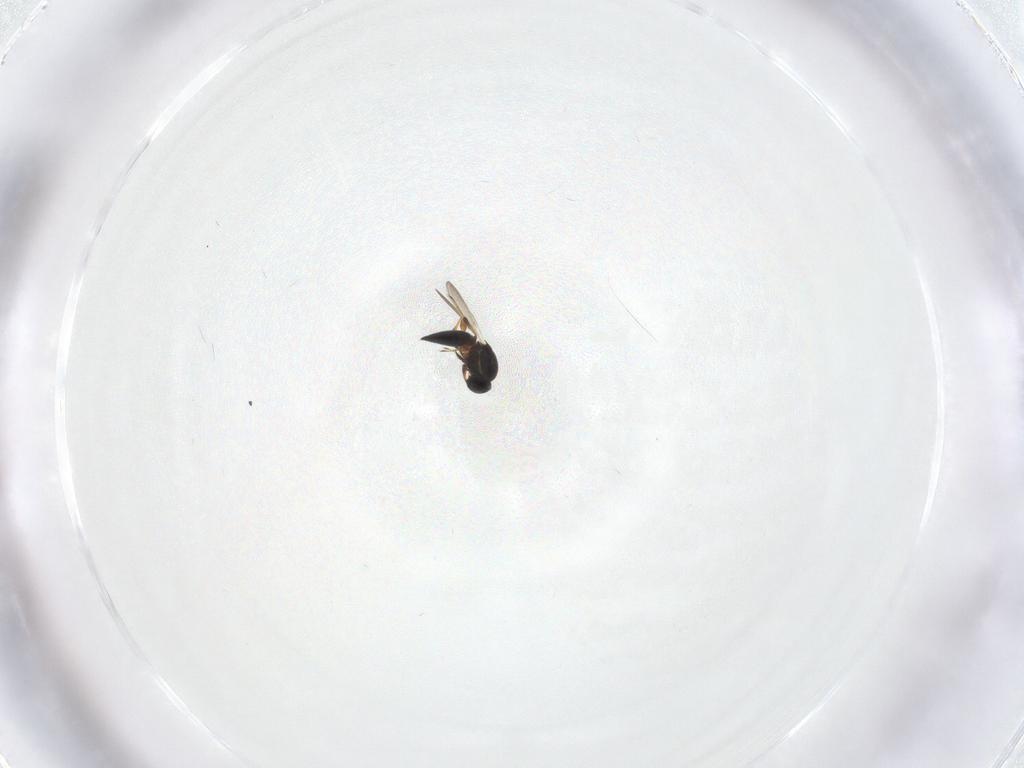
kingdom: Animalia
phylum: Arthropoda
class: Insecta
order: Hymenoptera
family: Platygastridae
